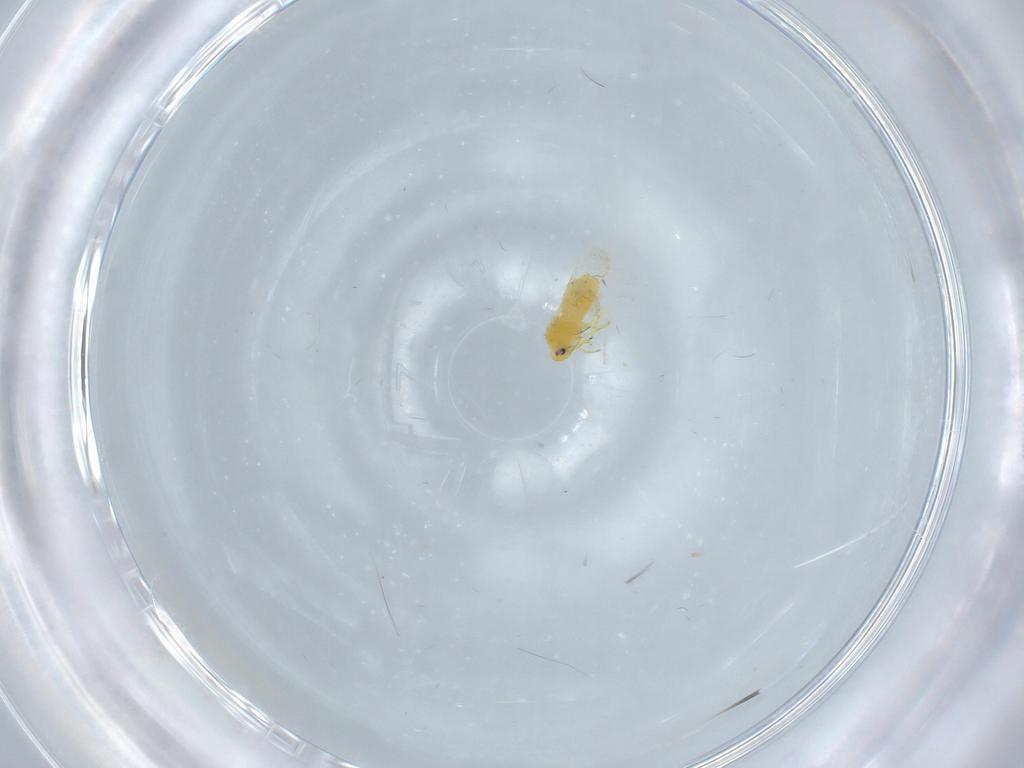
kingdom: Animalia
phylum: Arthropoda
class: Insecta
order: Hemiptera
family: Aleyrodidae
